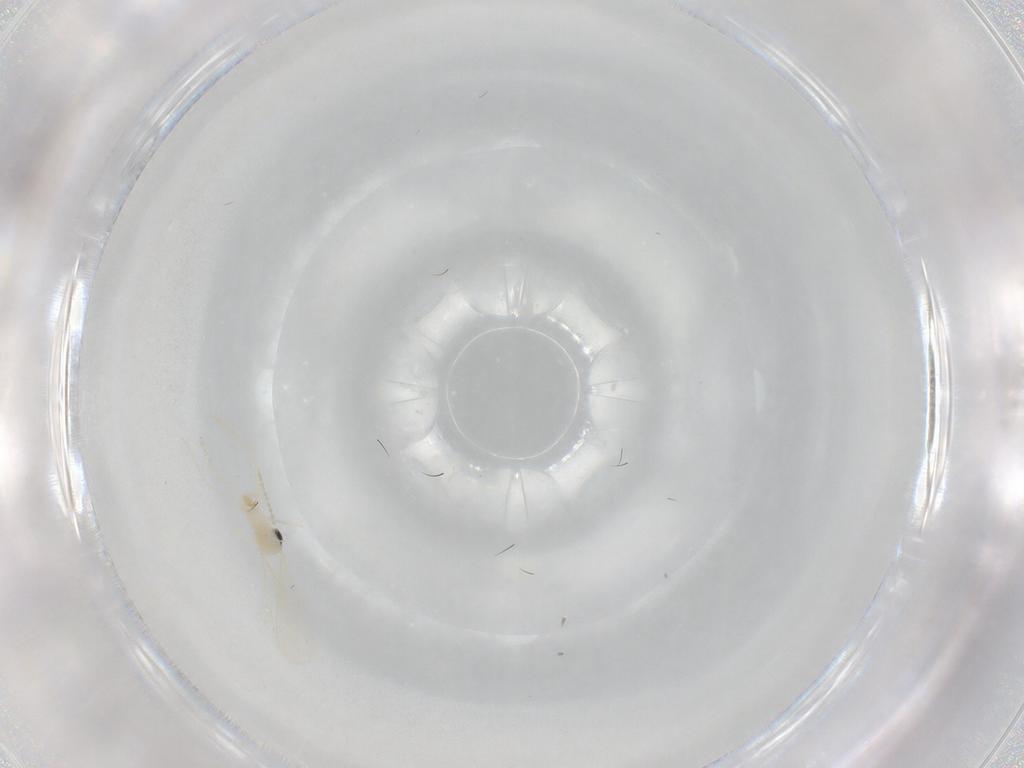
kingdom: Animalia
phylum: Arthropoda
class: Insecta
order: Diptera
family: Cecidomyiidae
